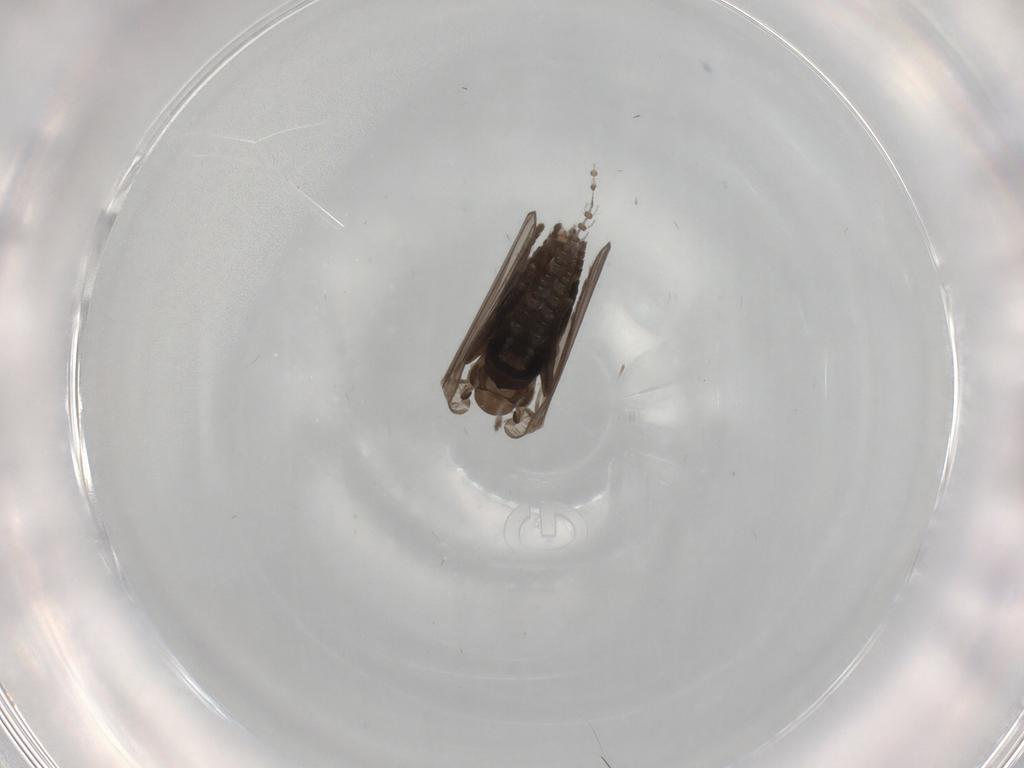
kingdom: Animalia
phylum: Arthropoda
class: Insecta
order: Diptera
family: Psychodidae
